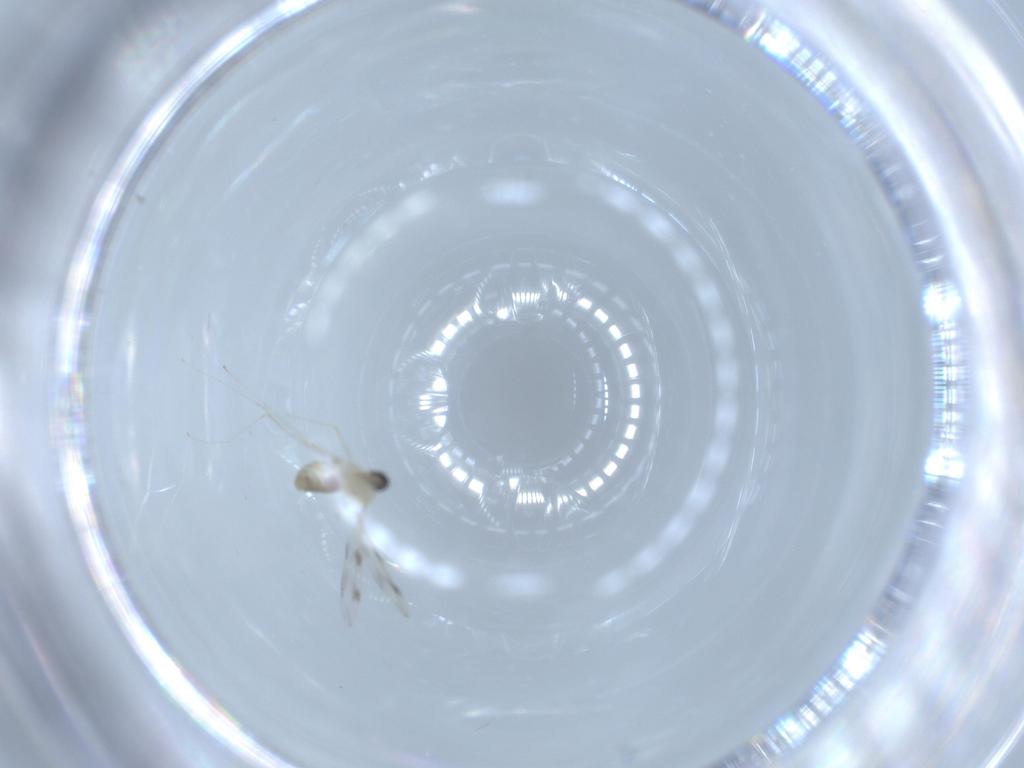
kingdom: Animalia
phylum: Arthropoda
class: Insecta
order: Diptera
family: Cecidomyiidae
